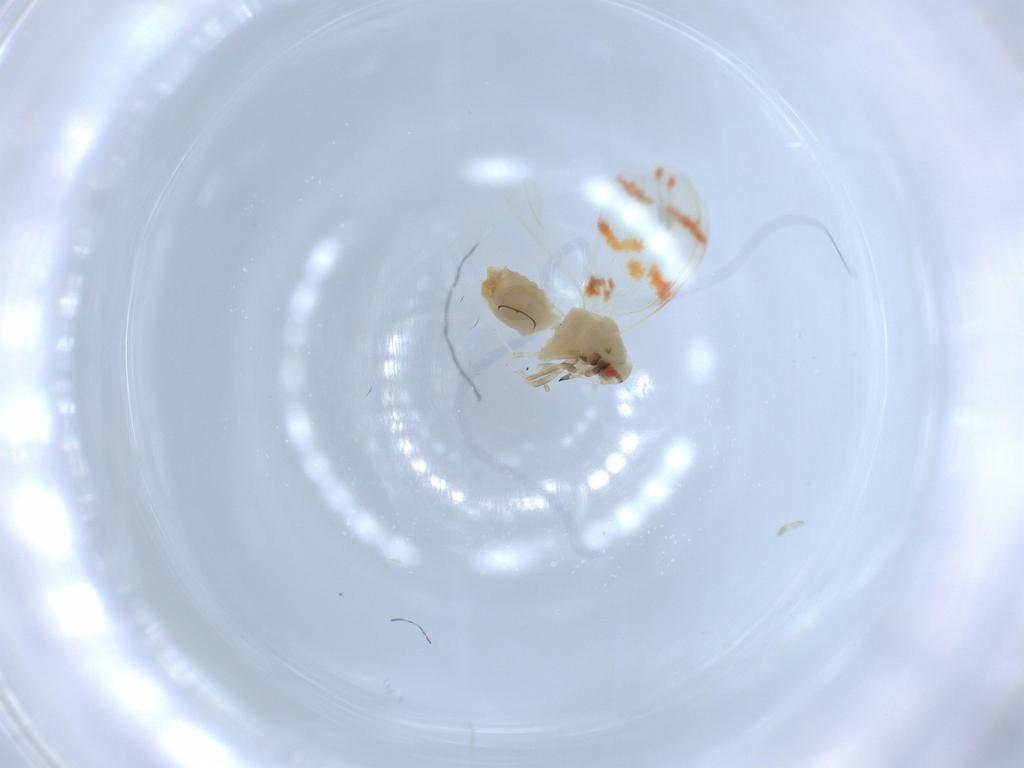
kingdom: Animalia
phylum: Arthropoda
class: Insecta
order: Hemiptera
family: Aleyrodidae
